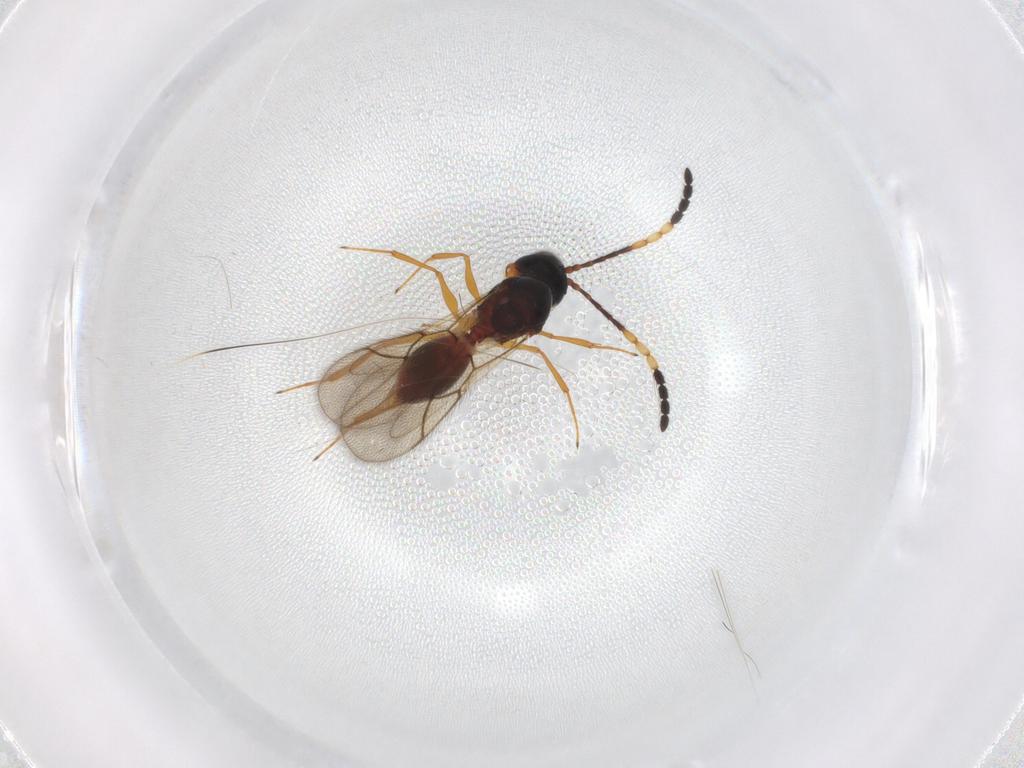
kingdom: Animalia
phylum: Arthropoda
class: Insecta
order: Hymenoptera
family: Figitidae
